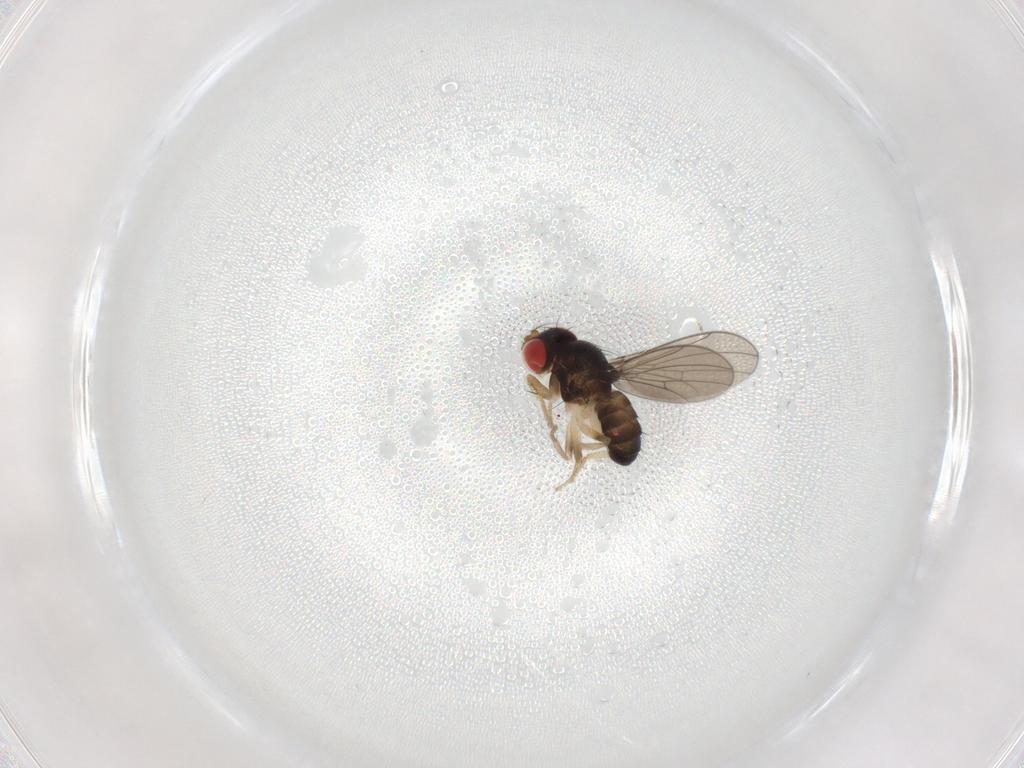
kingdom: Animalia
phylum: Arthropoda
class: Insecta
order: Diptera
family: Drosophilidae
